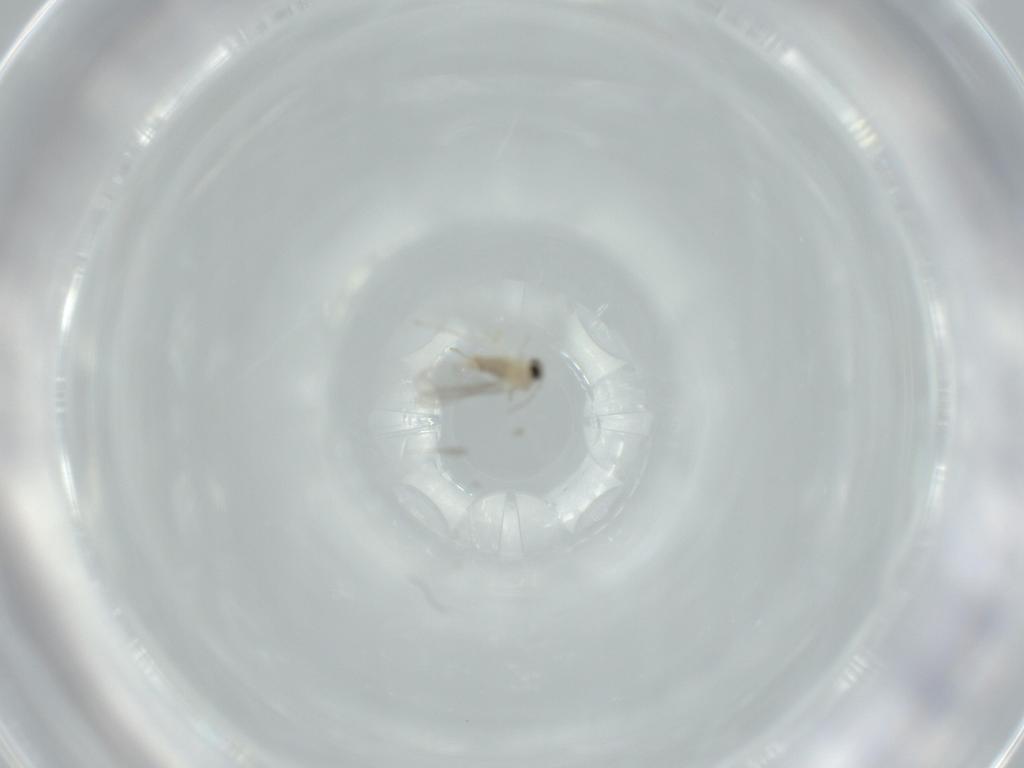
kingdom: Animalia
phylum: Arthropoda
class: Insecta
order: Diptera
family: Cecidomyiidae
